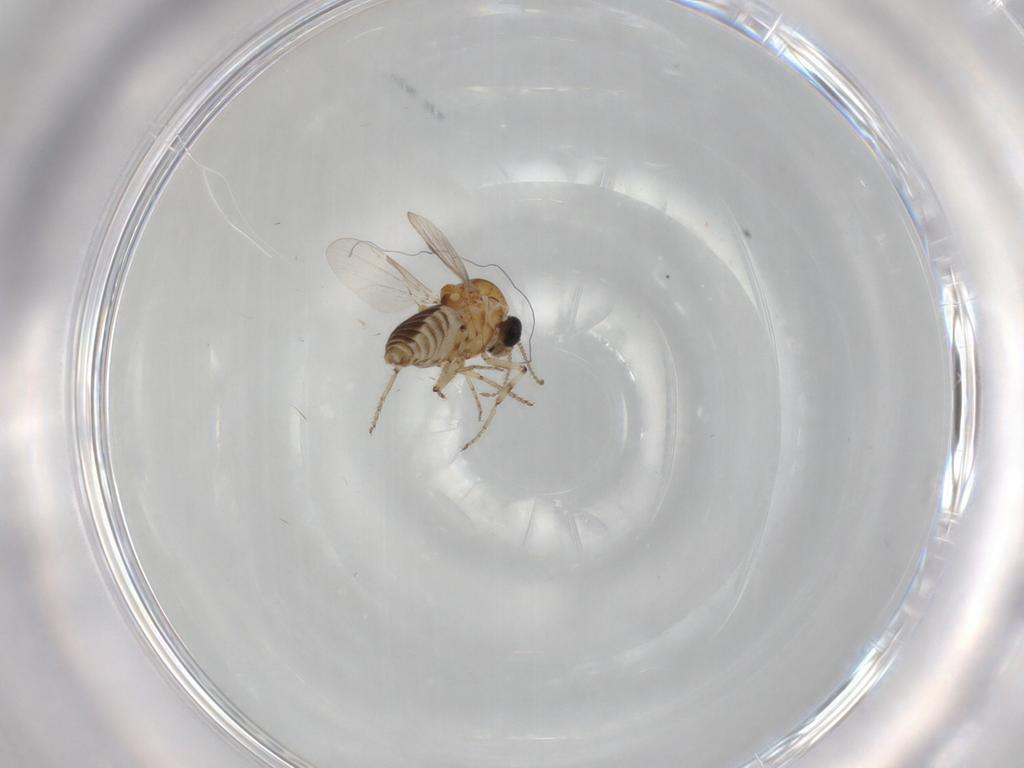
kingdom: Animalia
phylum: Arthropoda
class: Insecta
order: Diptera
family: Ceratopogonidae
